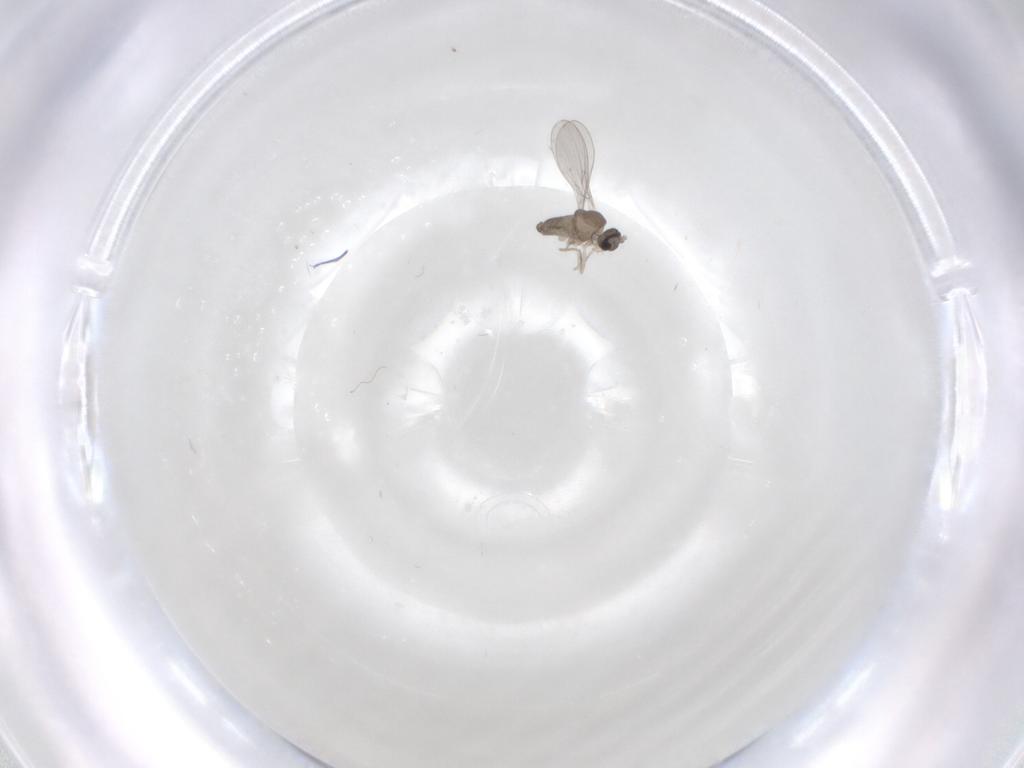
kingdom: Animalia
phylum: Arthropoda
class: Insecta
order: Diptera
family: Cecidomyiidae
